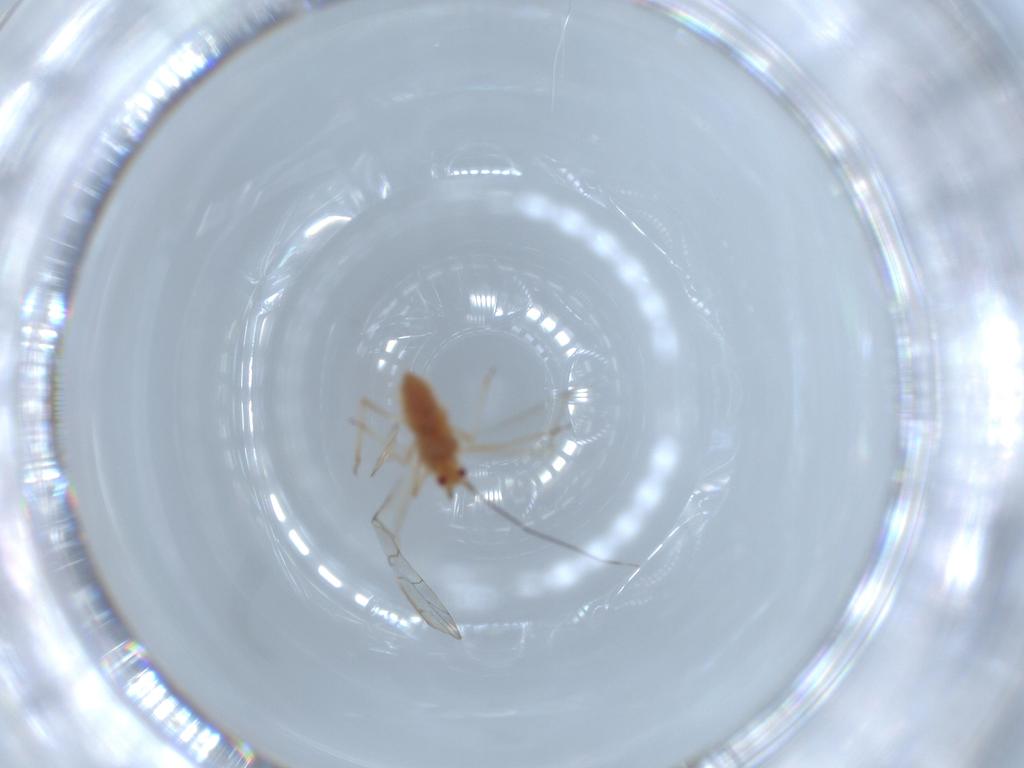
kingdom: Animalia
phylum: Arthropoda
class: Insecta
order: Hemiptera
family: Aphididae
